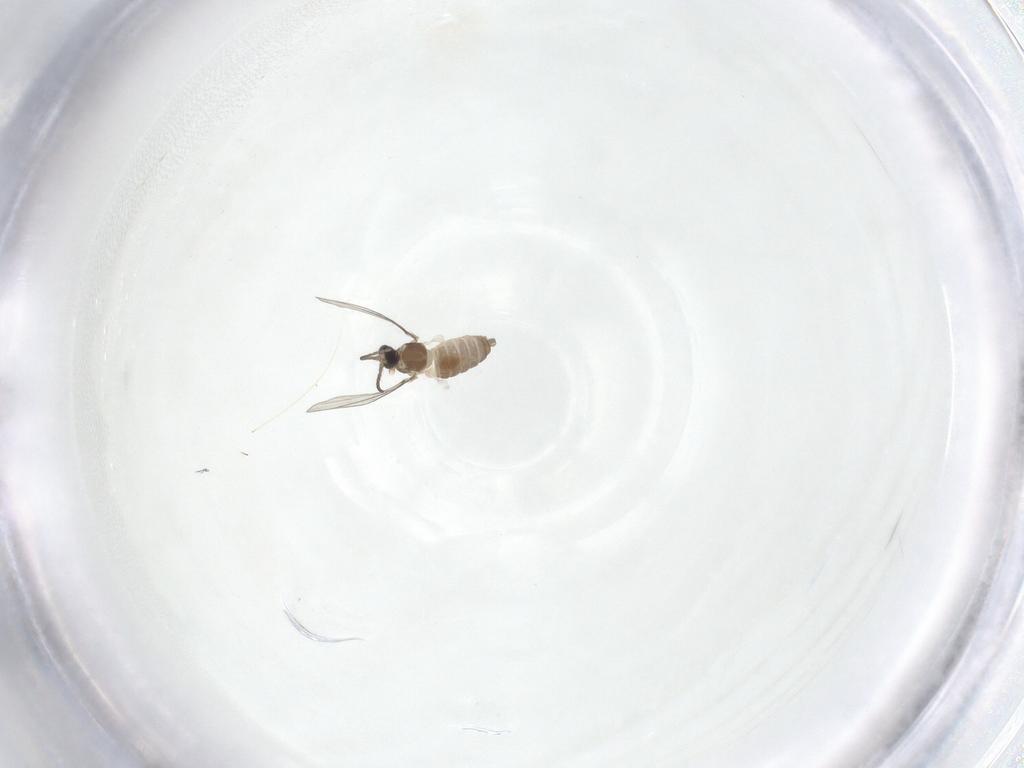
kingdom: Animalia
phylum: Arthropoda
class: Insecta
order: Diptera
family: Cecidomyiidae
